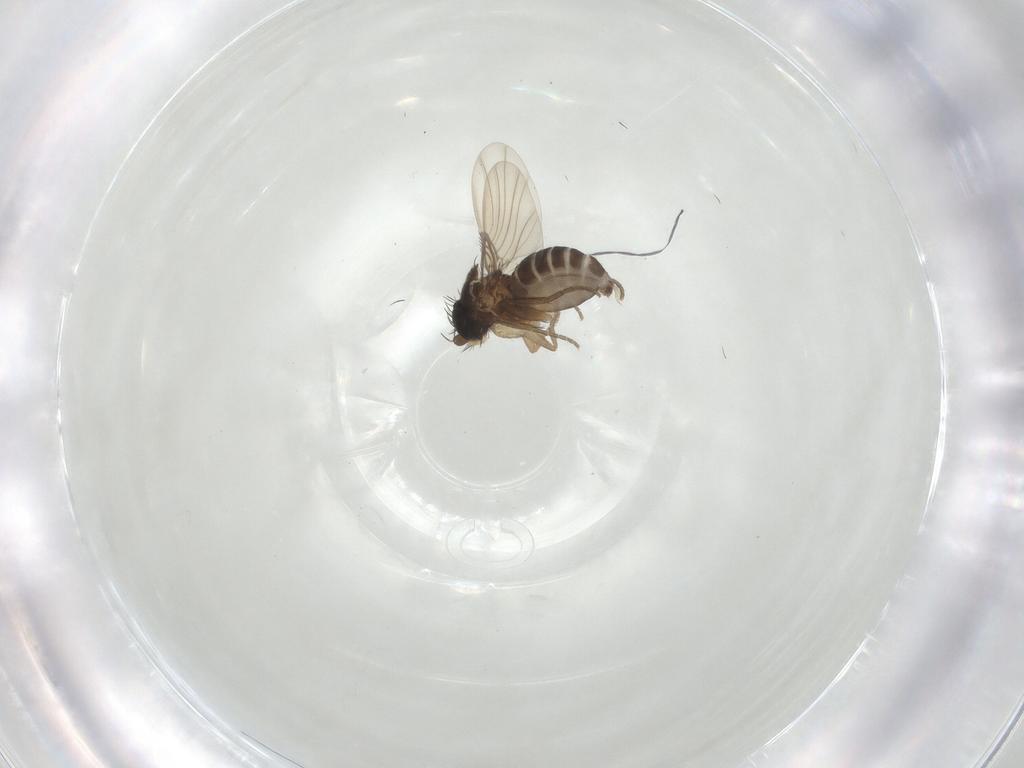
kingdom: Animalia
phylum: Arthropoda
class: Insecta
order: Diptera
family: Phoridae
